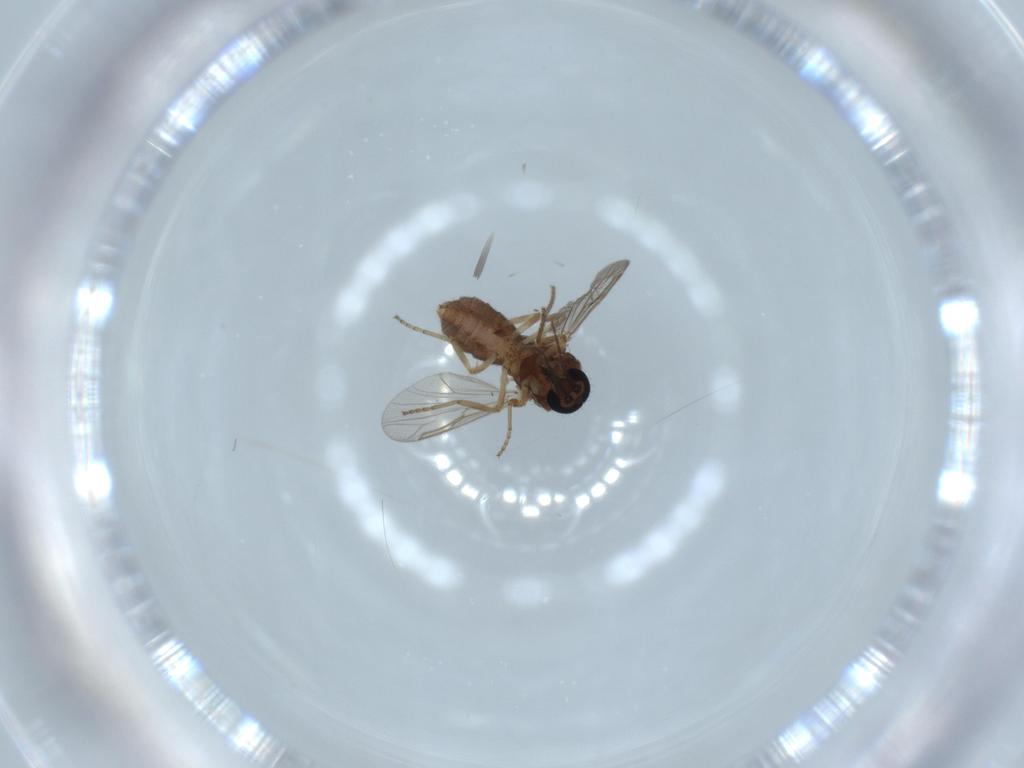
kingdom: Animalia
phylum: Arthropoda
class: Insecta
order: Diptera
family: Ceratopogonidae
